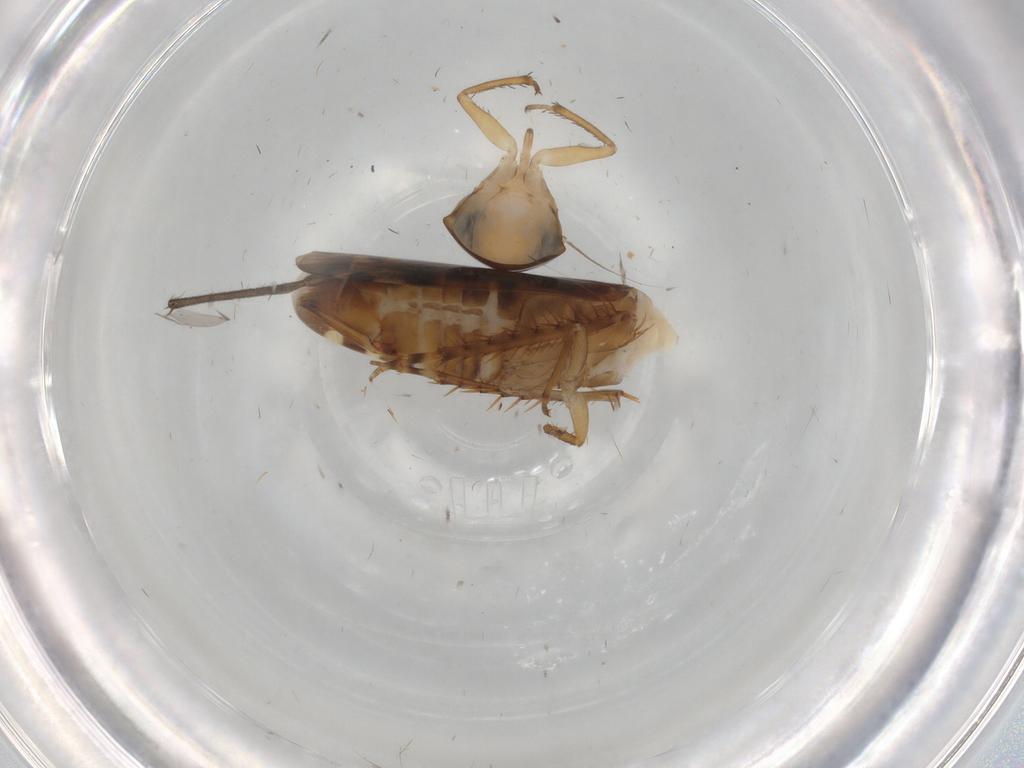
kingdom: Animalia
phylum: Arthropoda
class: Insecta
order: Hemiptera
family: Cicadellidae
